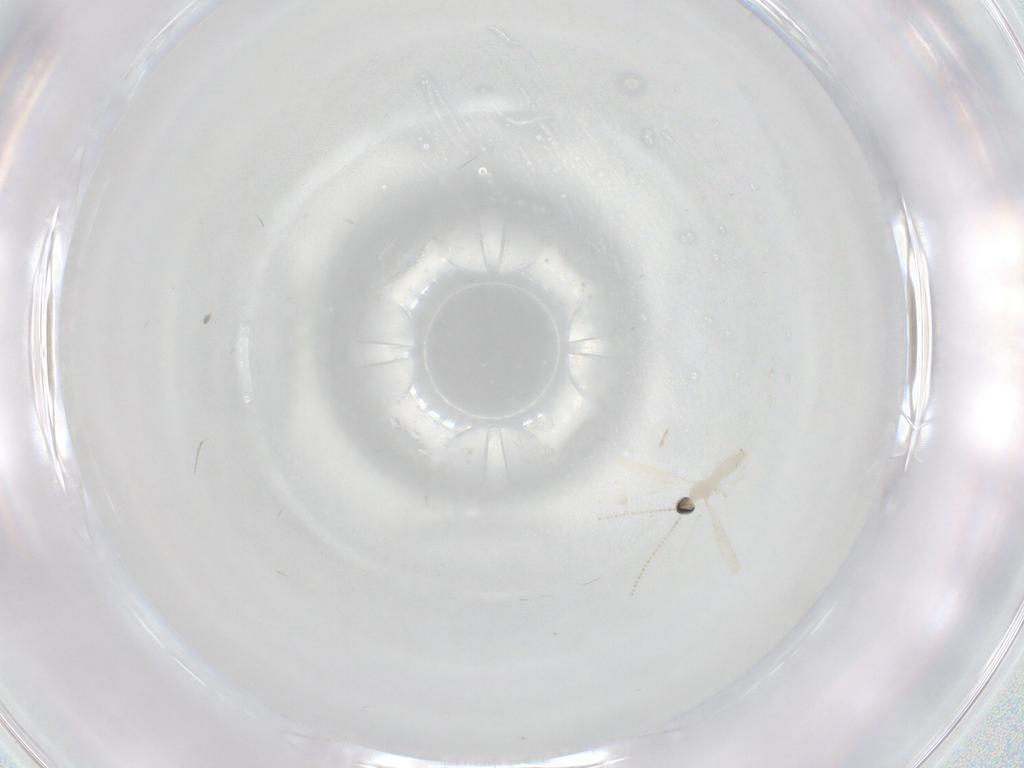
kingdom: Animalia
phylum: Arthropoda
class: Insecta
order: Diptera
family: Cecidomyiidae
